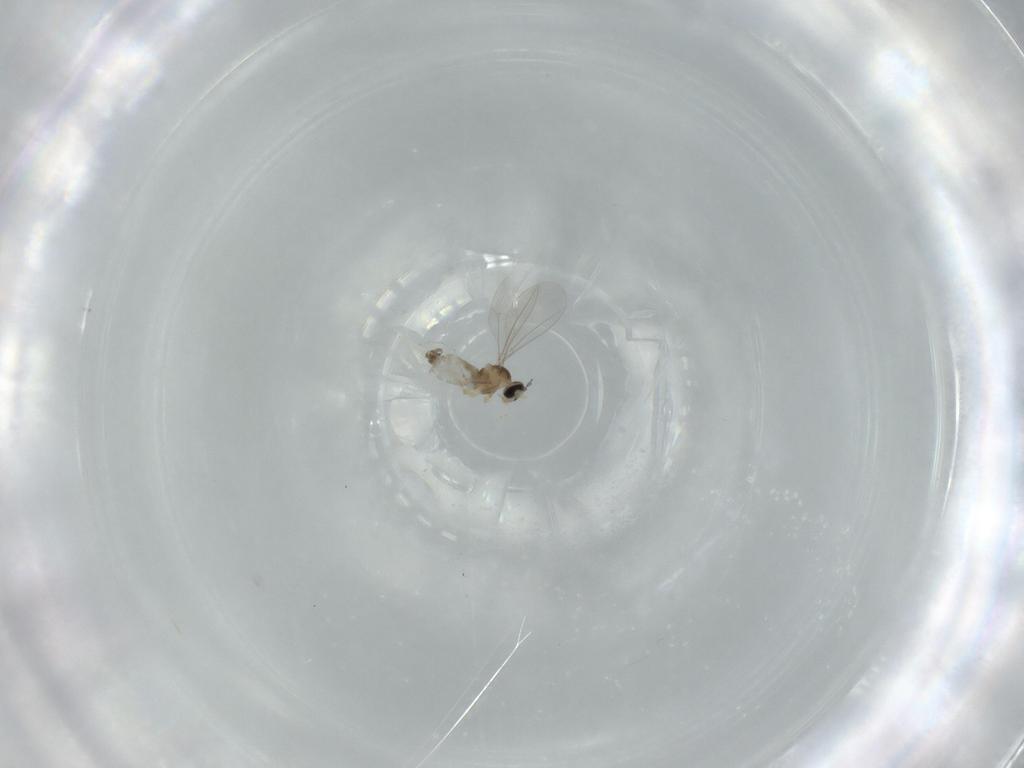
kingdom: Animalia
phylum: Arthropoda
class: Insecta
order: Diptera
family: Cecidomyiidae
